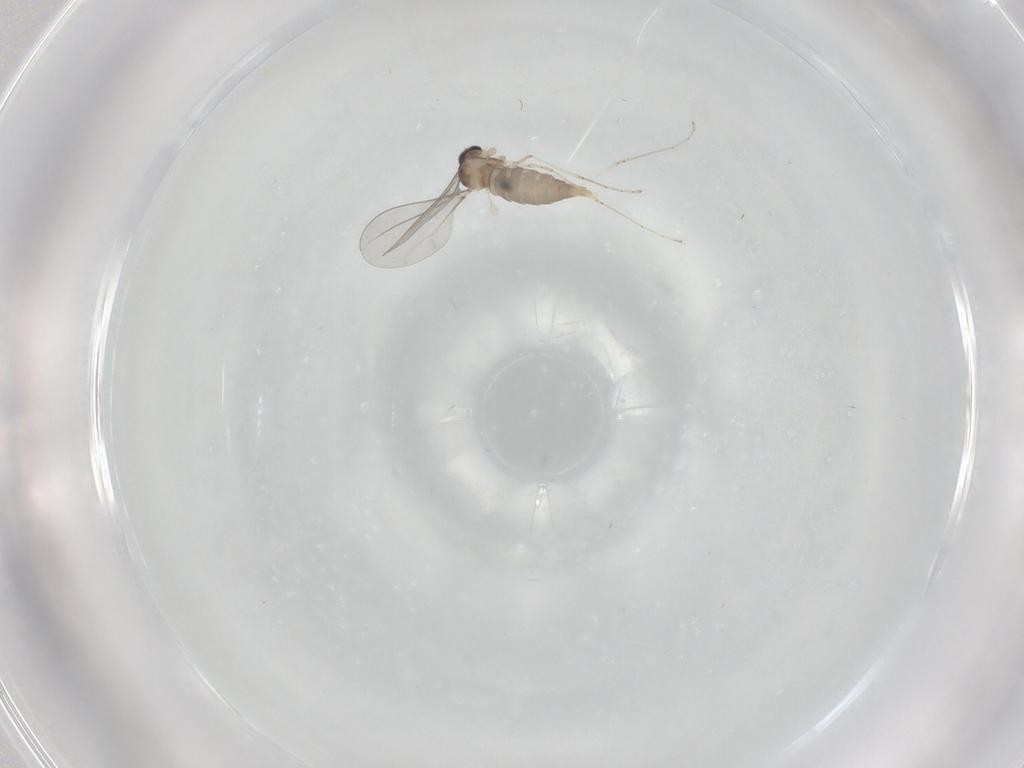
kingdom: Animalia
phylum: Arthropoda
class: Insecta
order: Diptera
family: Cecidomyiidae
